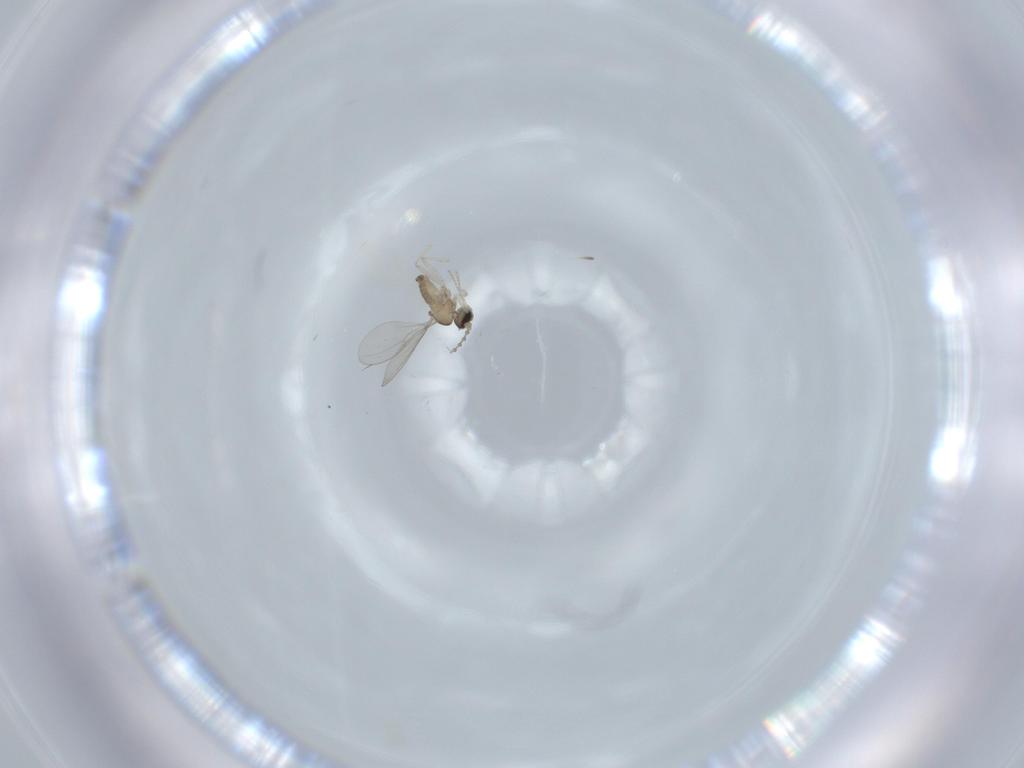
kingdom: Animalia
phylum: Arthropoda
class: Insecta
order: Diptera
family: Cecidomyiidae
